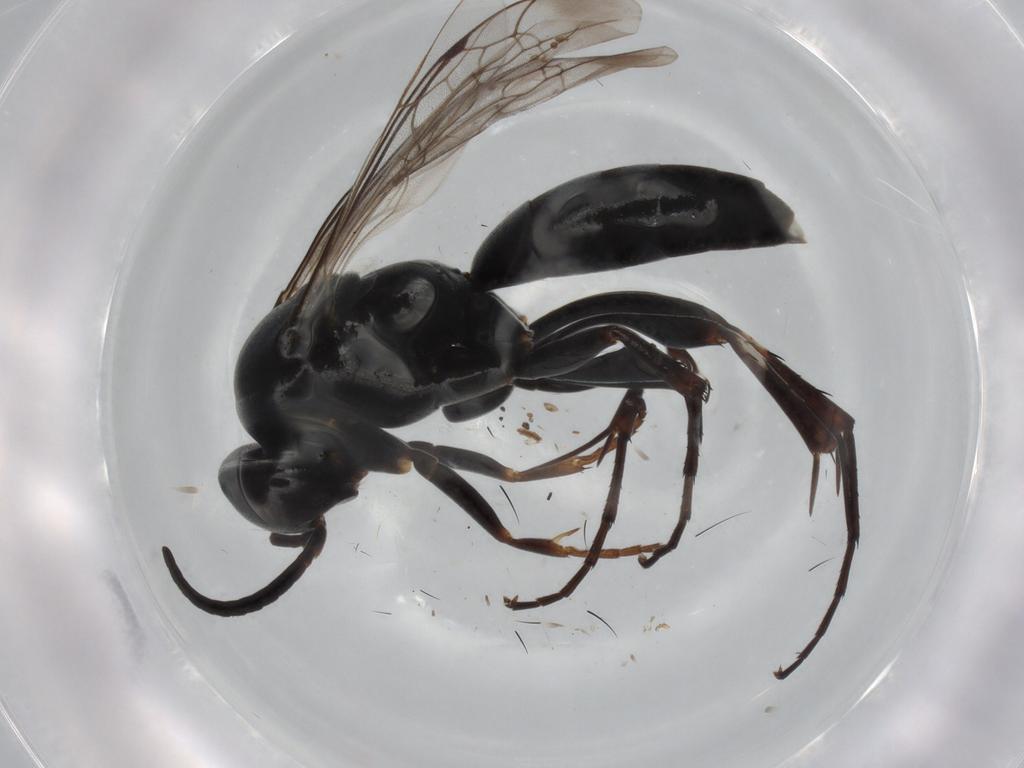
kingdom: Animalia
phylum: Arthropoda
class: Insecta
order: Hymenoptera
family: Pompilidae
